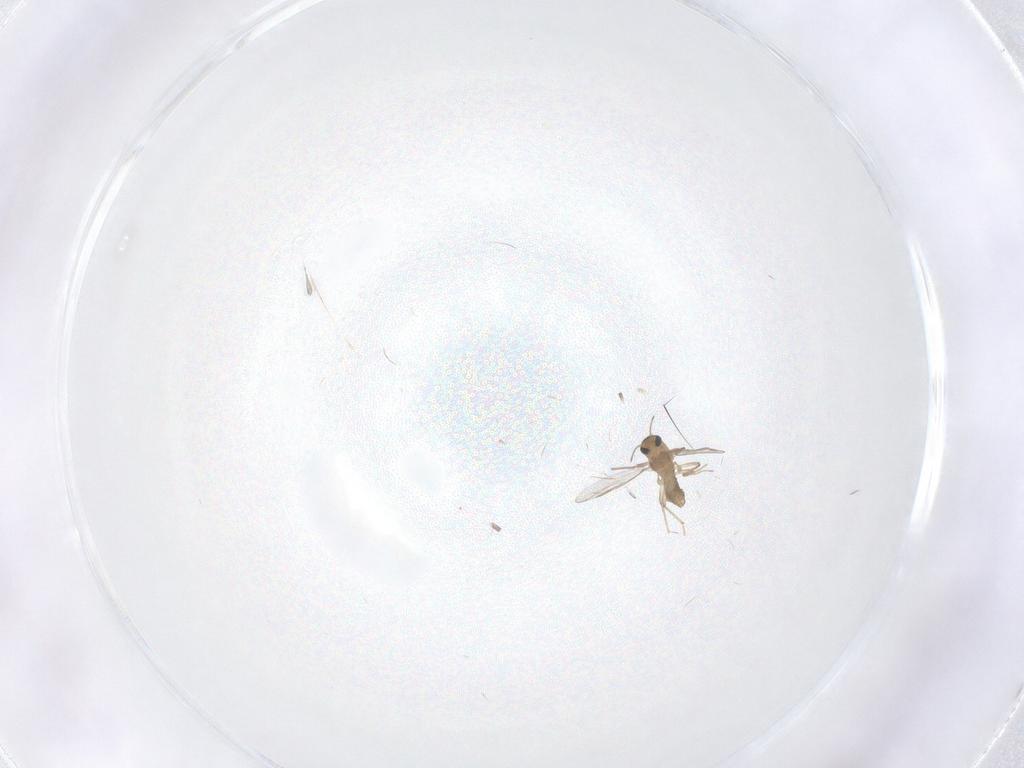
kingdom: Animalia
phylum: Arthropoda
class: Insecta
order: Diptera
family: Chironomidae
